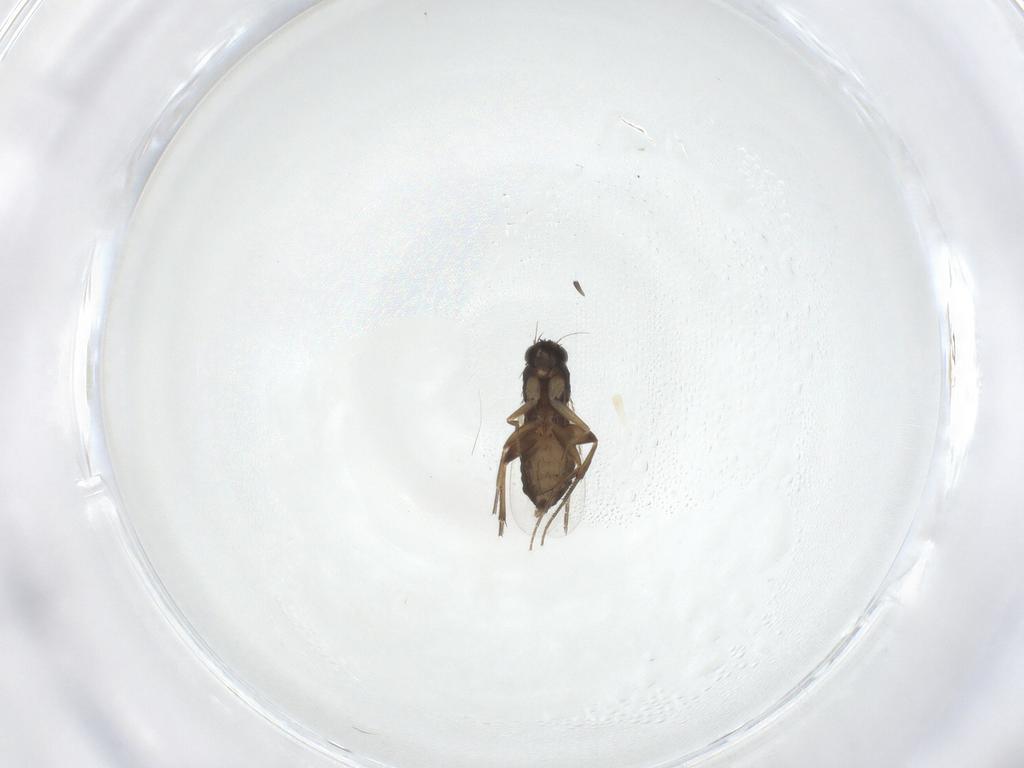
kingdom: Animalia
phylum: Arthropoda
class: Insecta
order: Diptera
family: Phoridae
